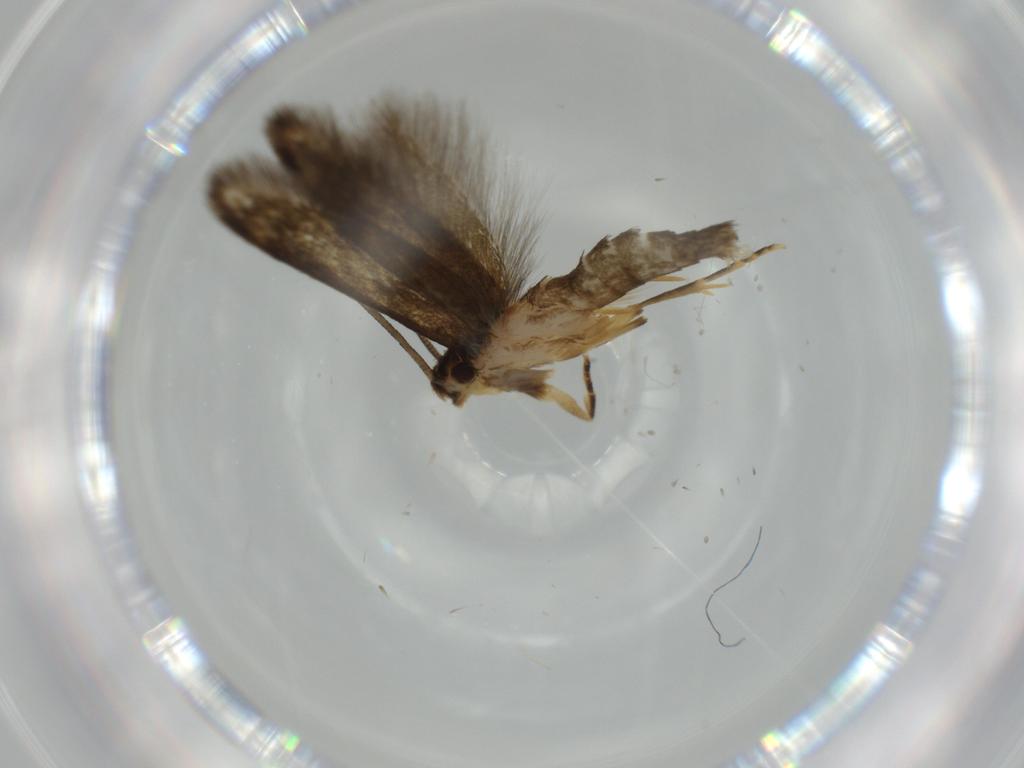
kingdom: Animalia
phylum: Arthropoda
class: Insecta
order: Lepidoptera
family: Tineidae
